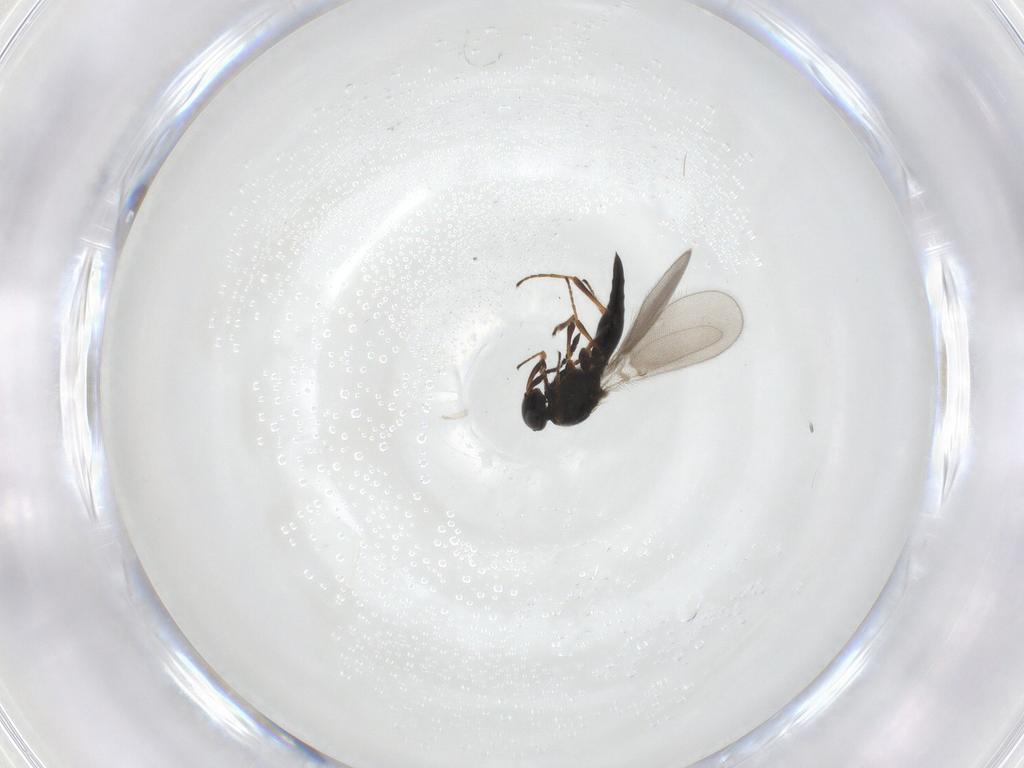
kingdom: Animalia
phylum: Arthropoda
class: Insecta
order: Hymenoptera
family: Platygastridae
